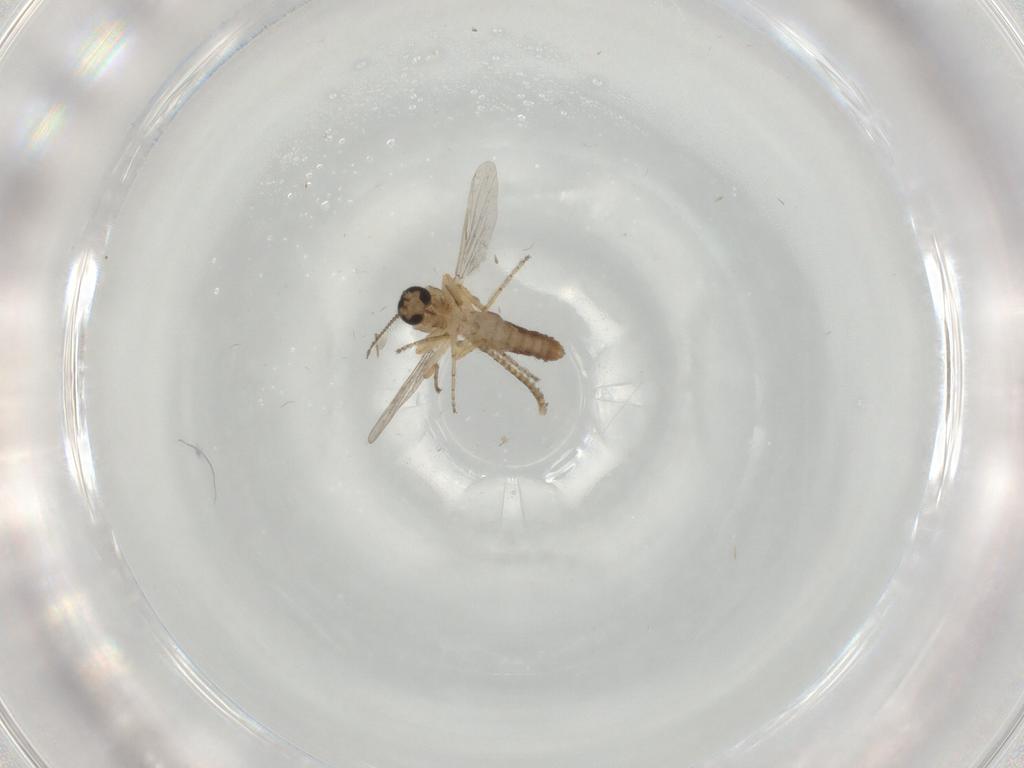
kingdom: Animalia
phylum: Arthropoda
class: Insecta
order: Diptera
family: Ceratopogonidae
